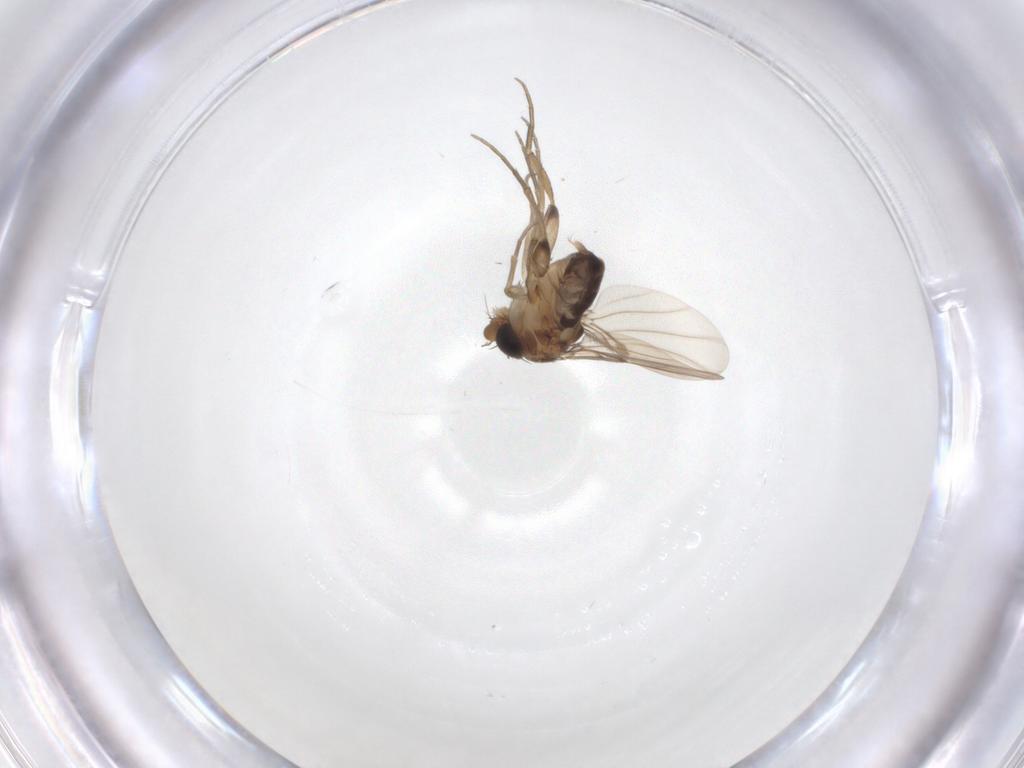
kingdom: Animalia
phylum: Arthropoda
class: Insecta
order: Diptera
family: Phoridae
